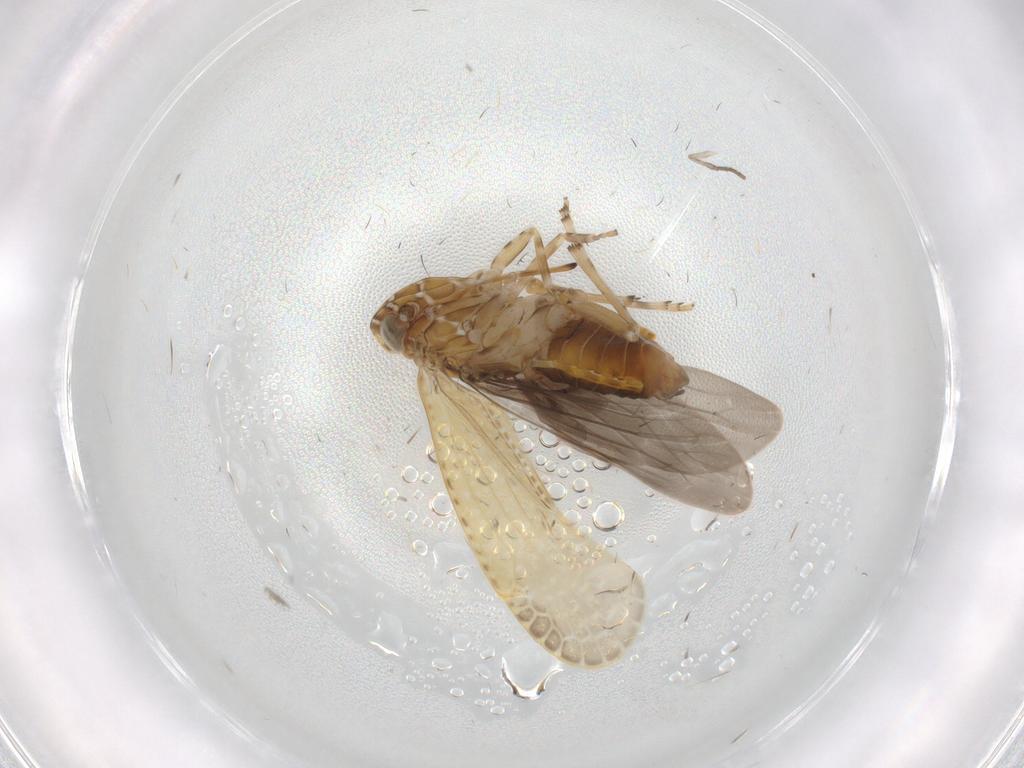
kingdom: Animalia
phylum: Arthropoda
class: Insecta
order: Hemiptera
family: Achilidae
